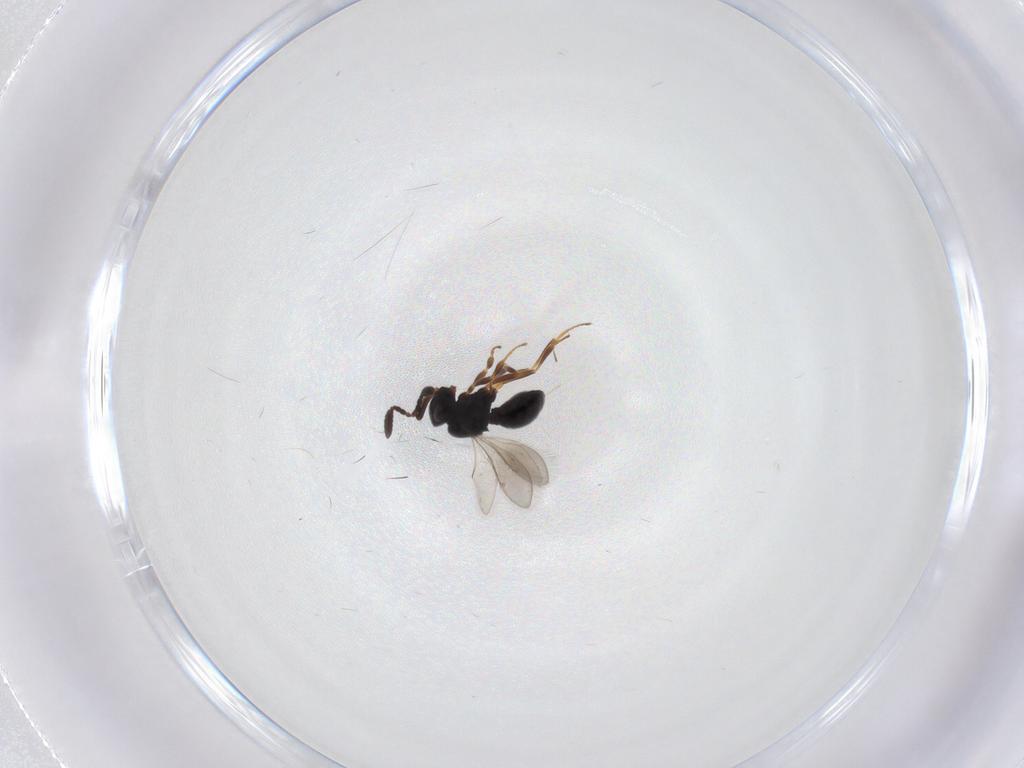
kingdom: Animalia
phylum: Arthropoda
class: Insecta
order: Hymenoptera
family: Scelionidae
